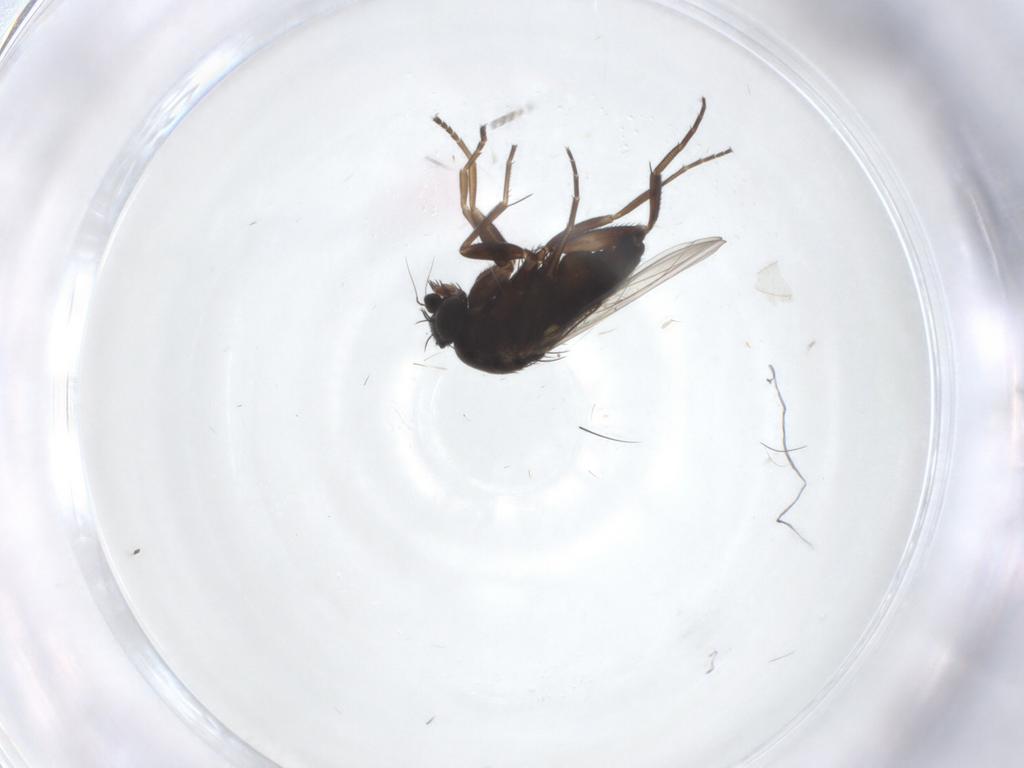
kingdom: Animalia
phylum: Arthropoda
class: Insecta
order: Diptera
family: Phoridae
